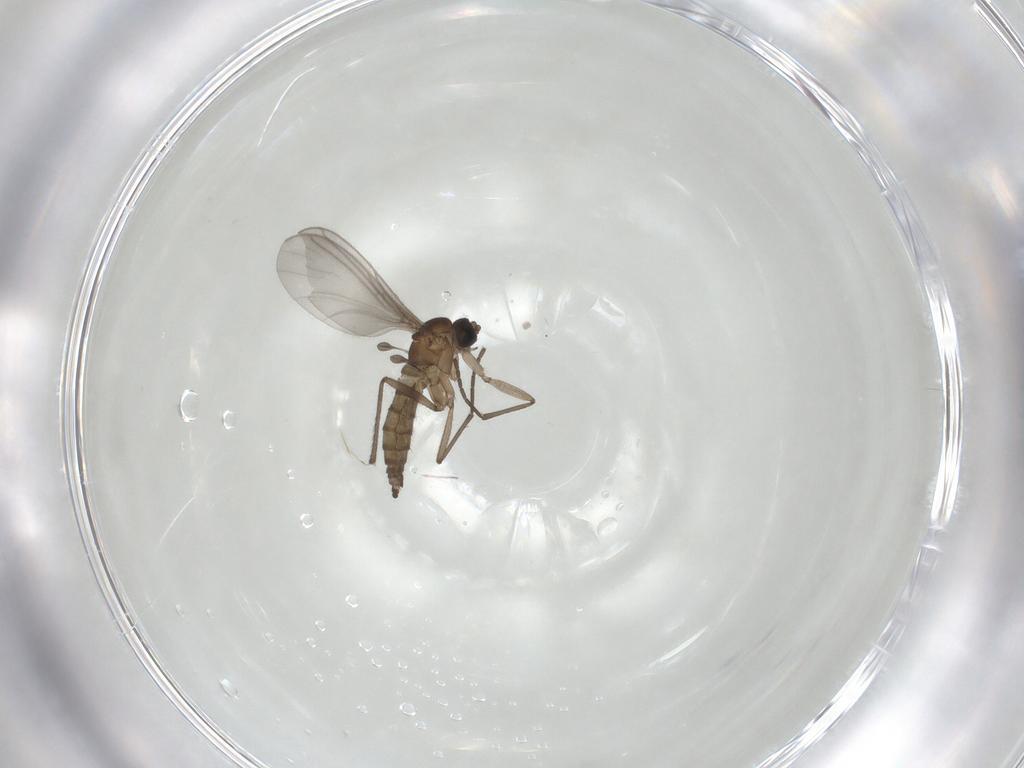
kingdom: Animalia
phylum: Arthropoda
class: Insecta
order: Diptera
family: Sciaridae
